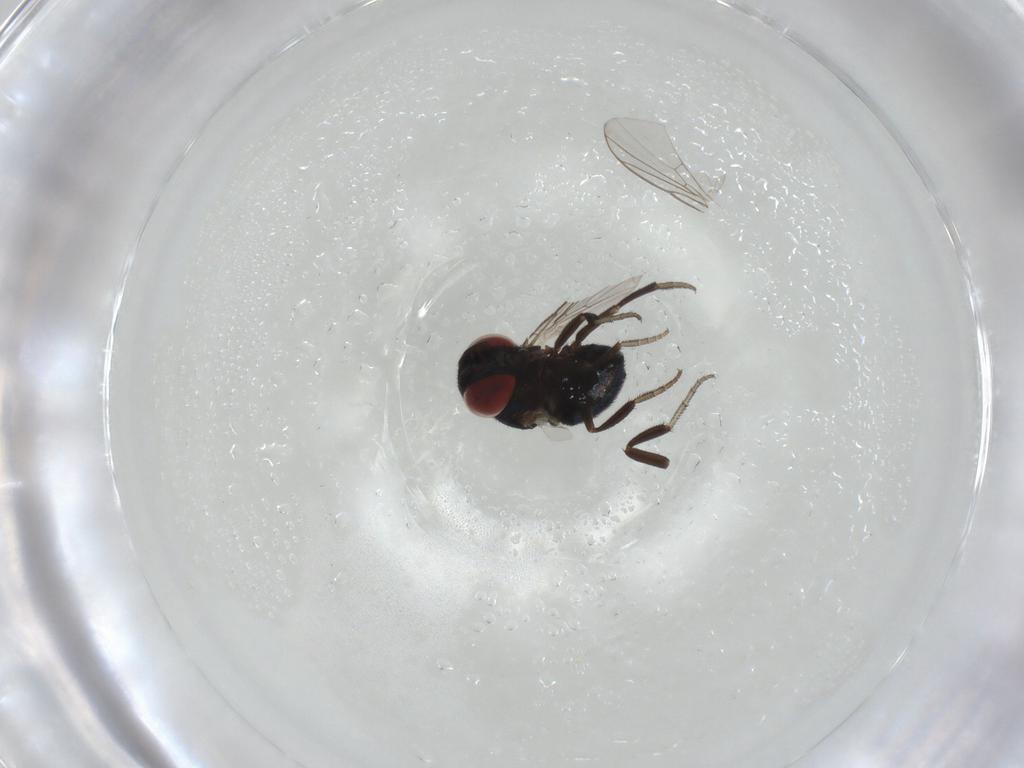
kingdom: Animalia
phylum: Arthropoda
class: Insecta
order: Diptera
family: Cryptochetidae
